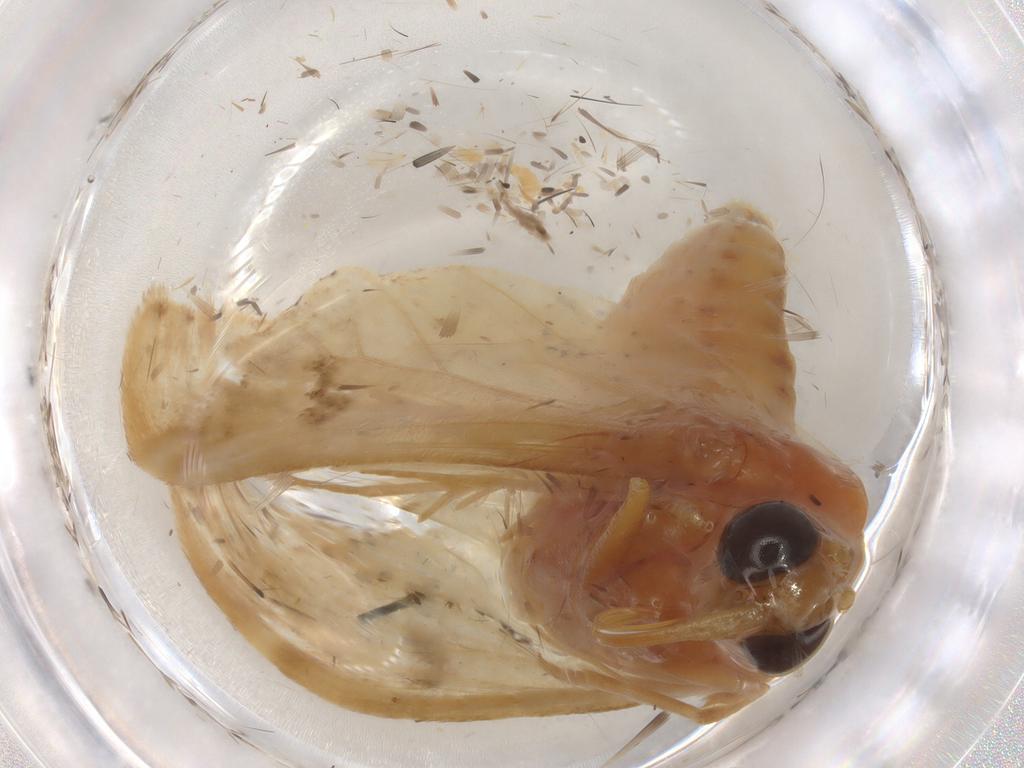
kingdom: Animalia
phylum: Arthropoda
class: Insecta
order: Lepidoptera
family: Crambidae
